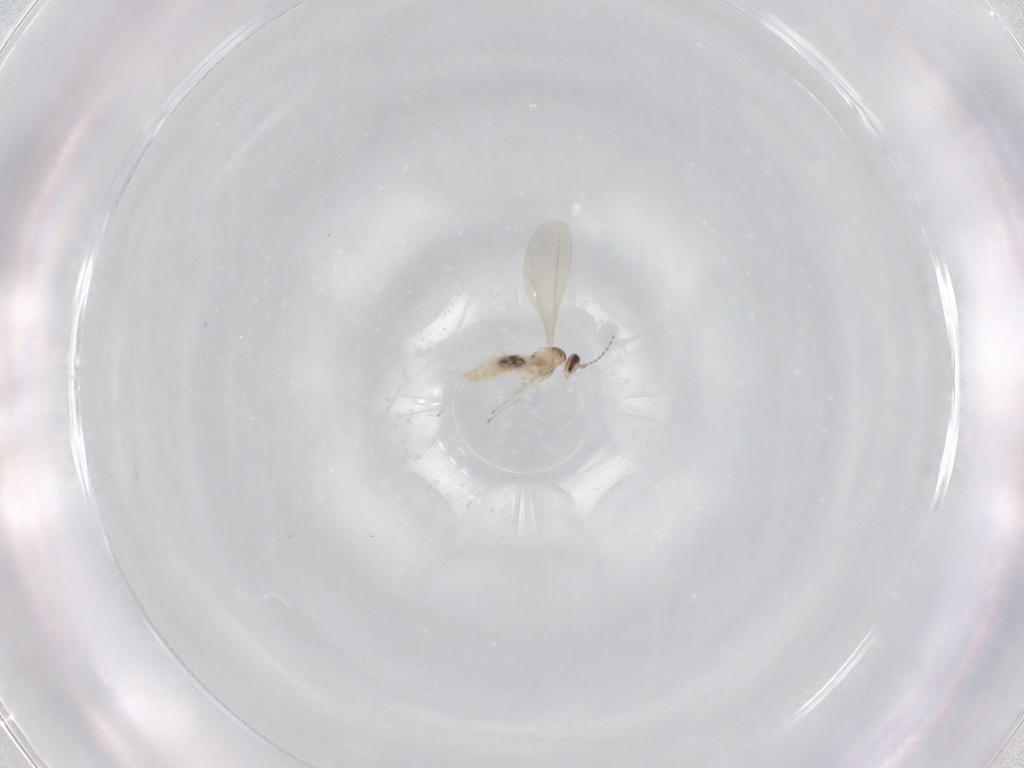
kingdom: Animalia
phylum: Arthropoda
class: Insecta
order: Diptera
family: Cecidomyiidae
